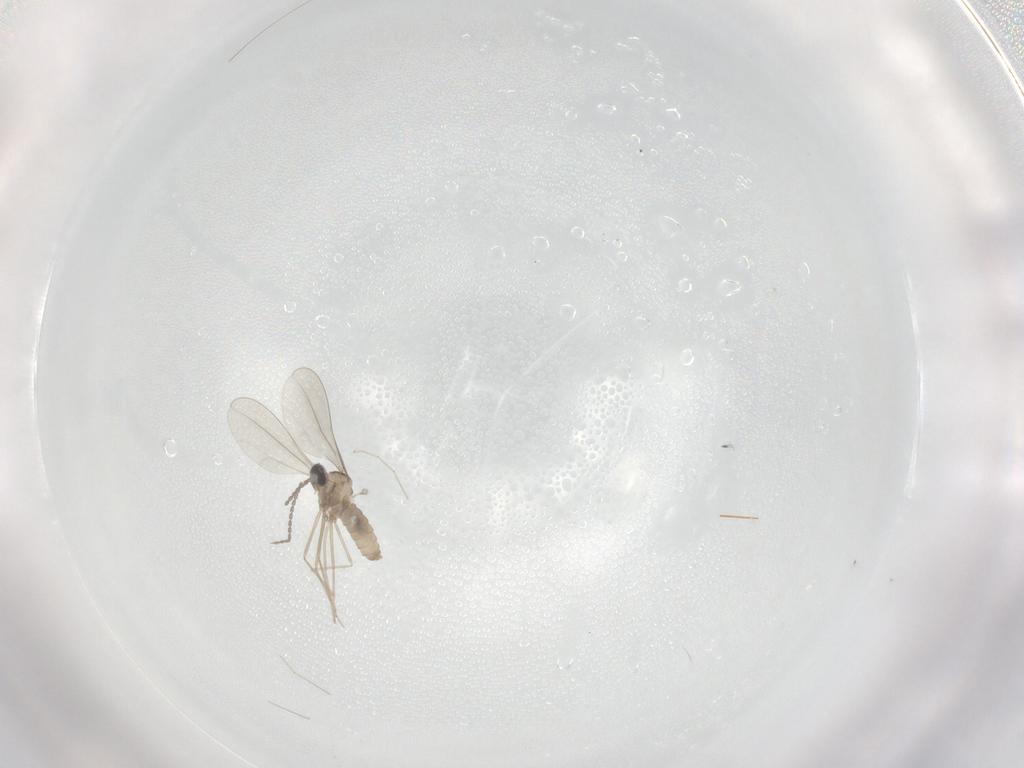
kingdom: Animalia
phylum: Arthropoda
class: Insecta
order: Diptera
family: Cecidomyiidae
